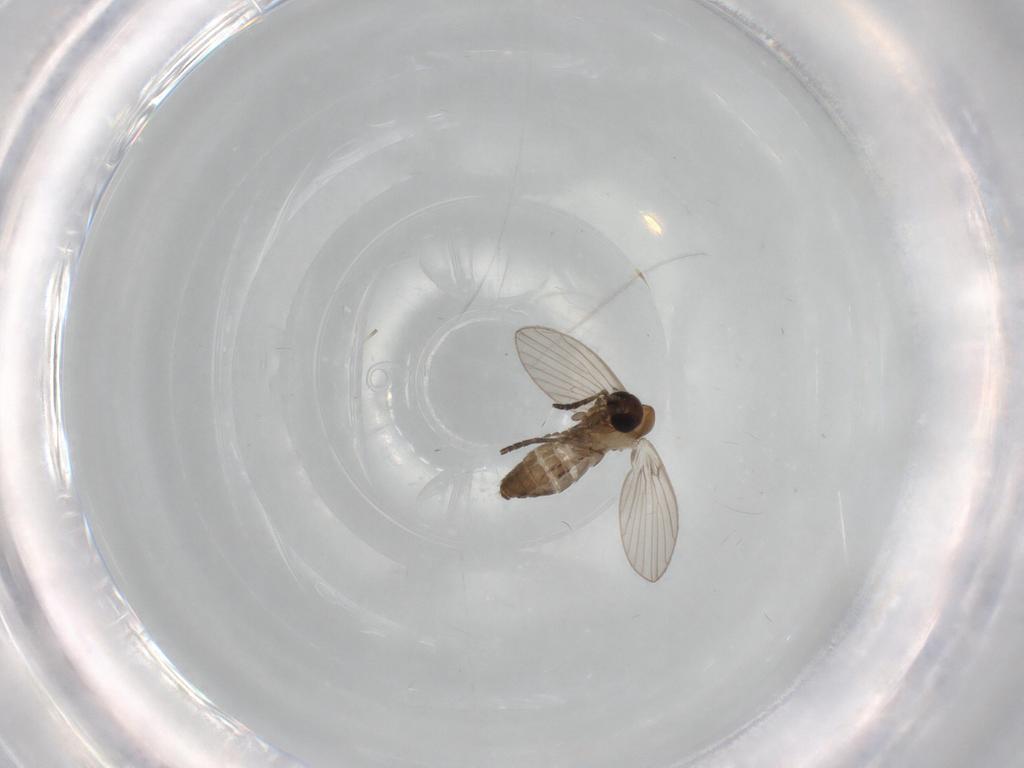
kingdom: Animalia
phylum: Arthropoda
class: Insecta
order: Diptera
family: Chironomidae
